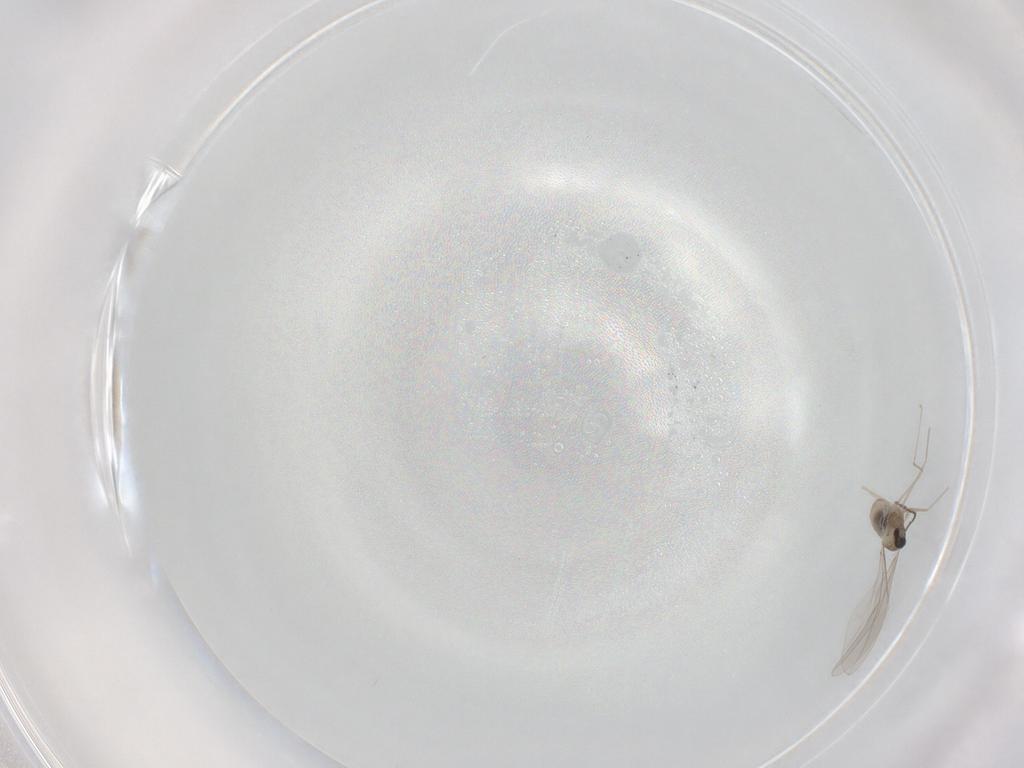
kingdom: Animalia
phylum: Arthropoda
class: Insecta
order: Diptera
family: Cecidomyiidae
